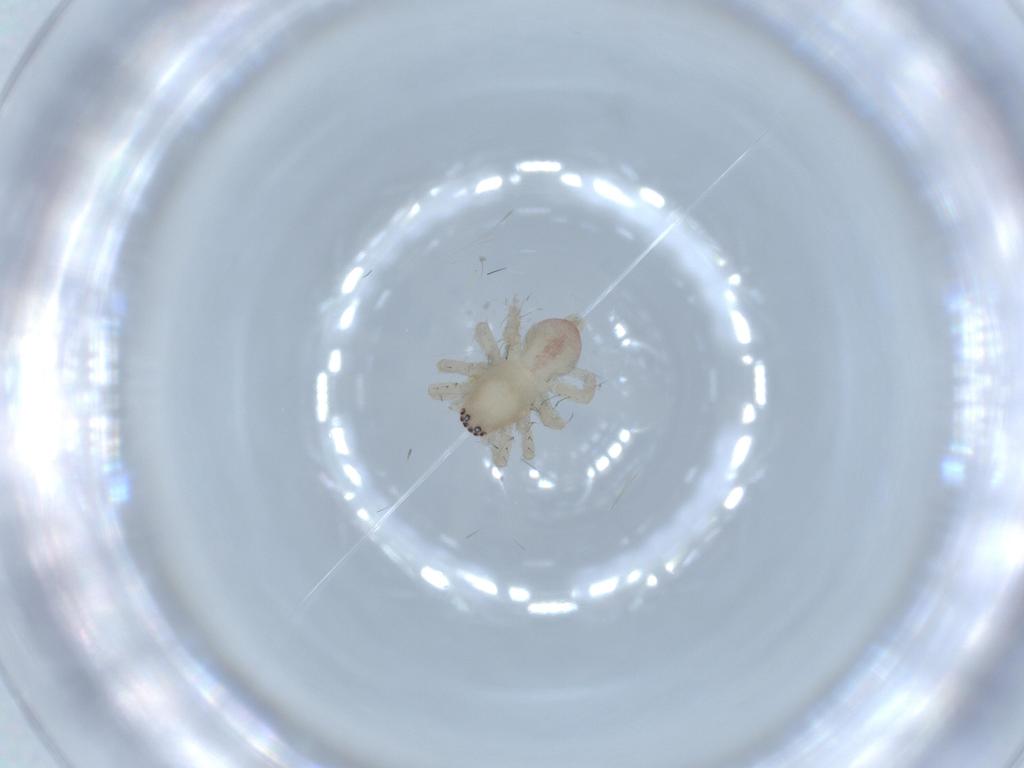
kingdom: Animalia
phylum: Arthropoda
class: Arachnida
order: Araneae
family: Clubionidae
